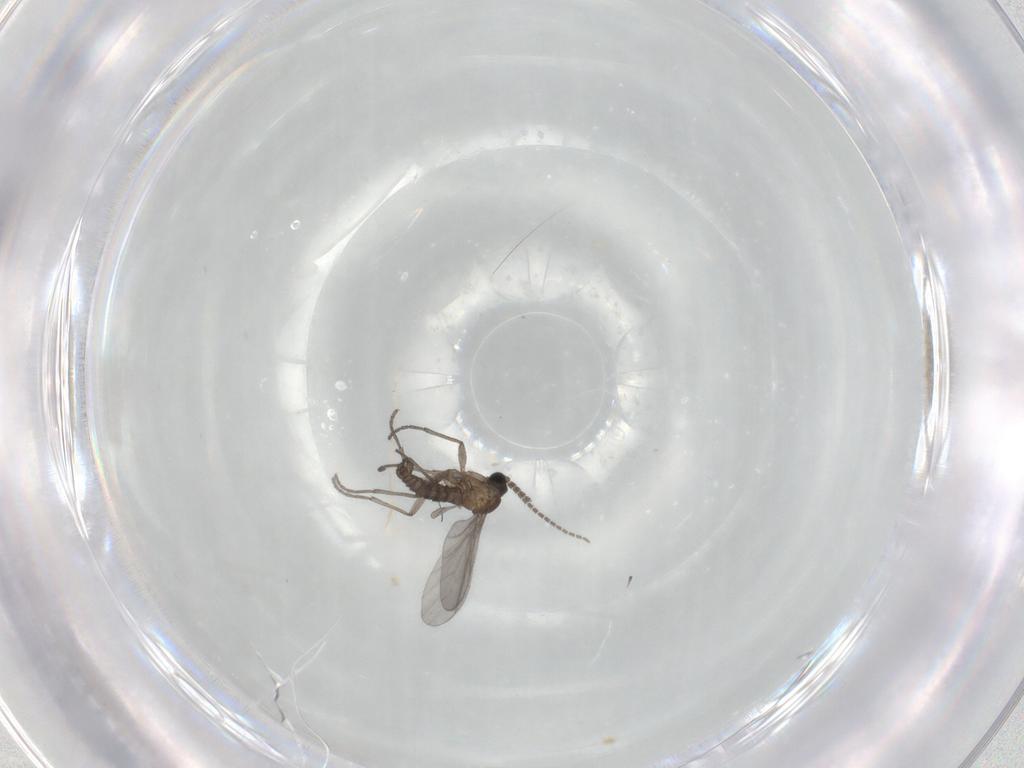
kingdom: Animalia
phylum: Arthropoda
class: Insecta
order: Diptera
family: Sciaridae
